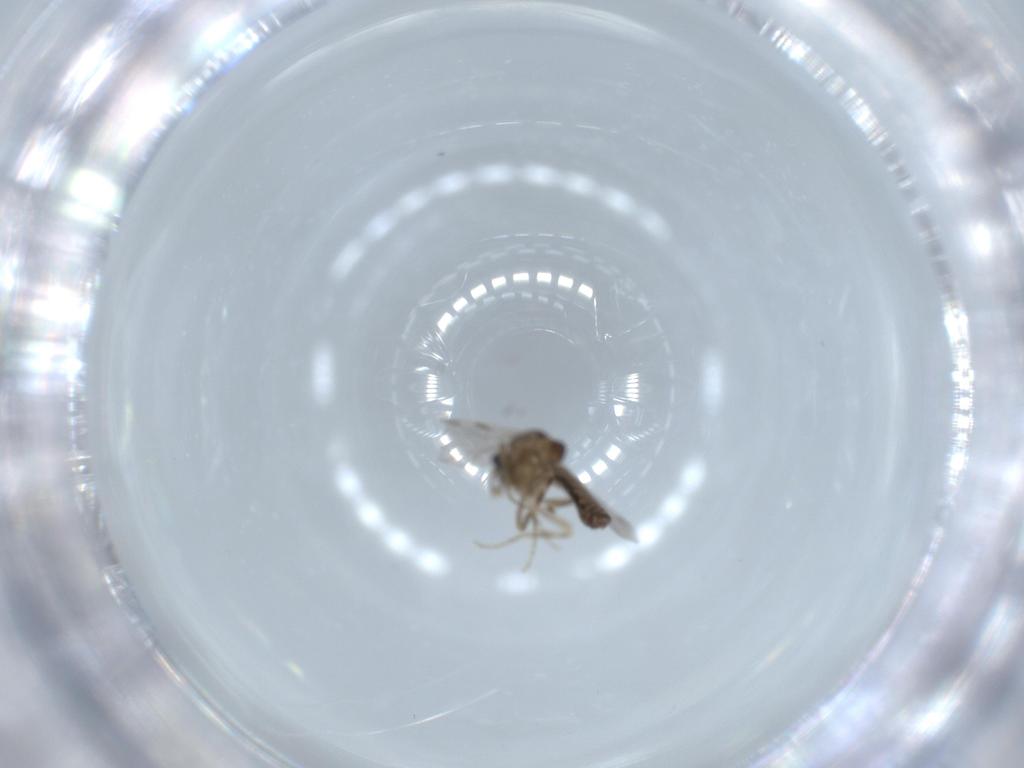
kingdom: Animalia
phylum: Arthropoda
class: Insecta
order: Diptera
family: Ceratopogonidae
